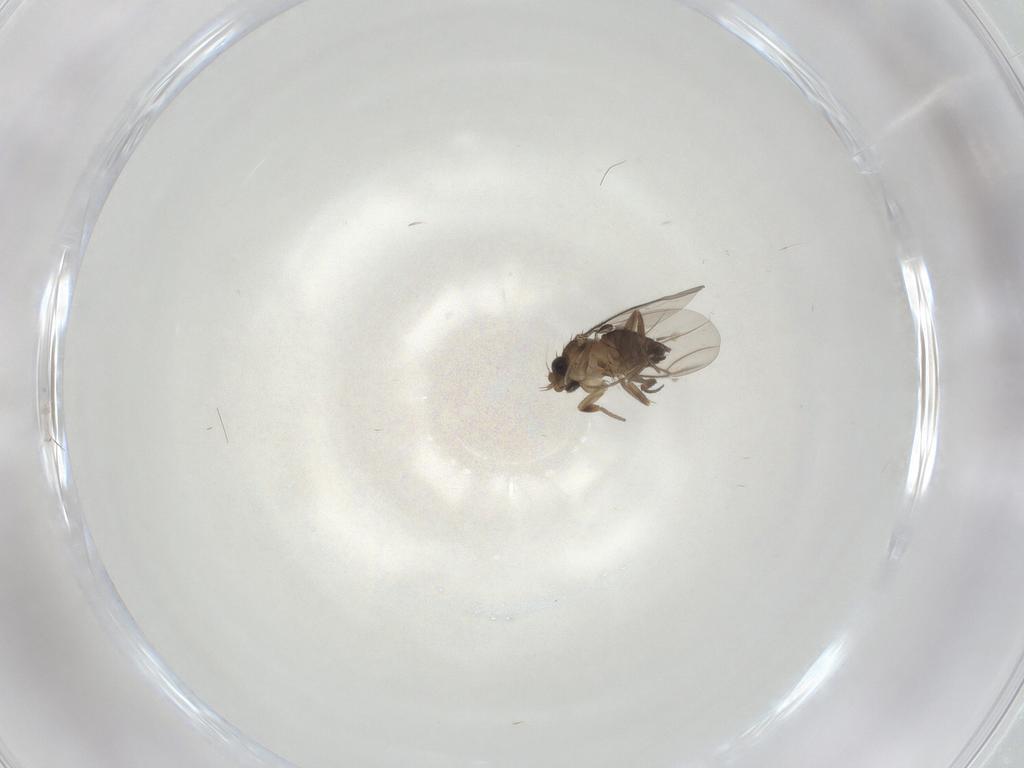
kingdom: Animalia
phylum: Arthropoda
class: Insecta
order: Diptera
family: Phoridae
